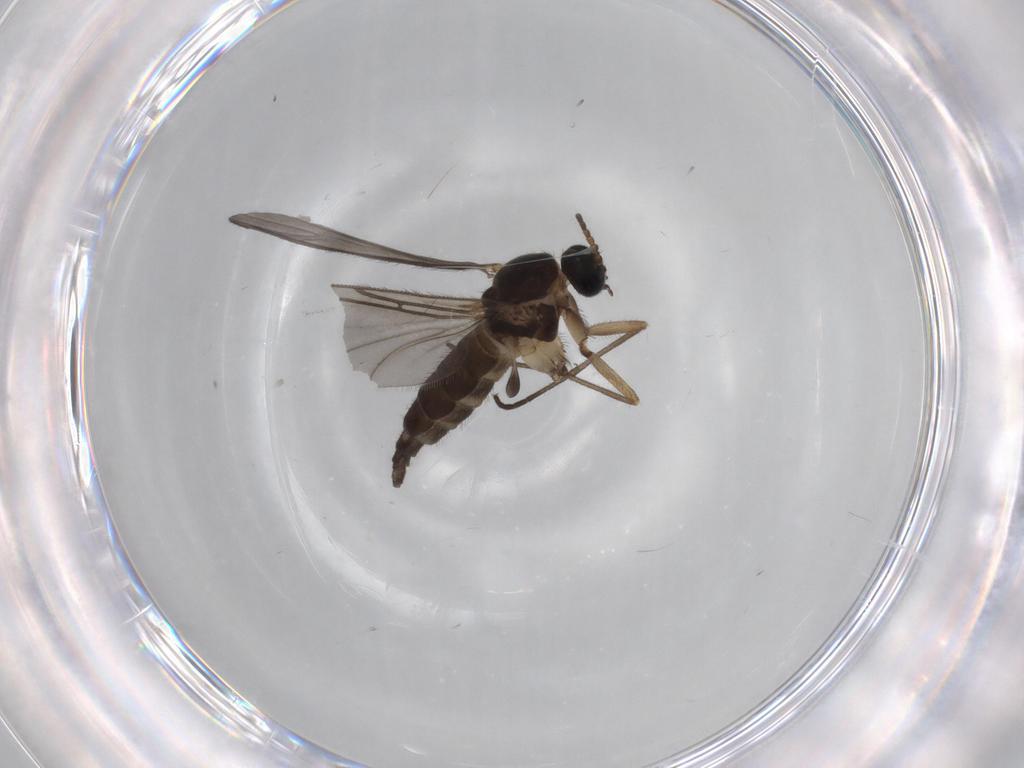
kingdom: Animalia
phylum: Arthropoda
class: Insecta
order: Diptera
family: Sciaridae
